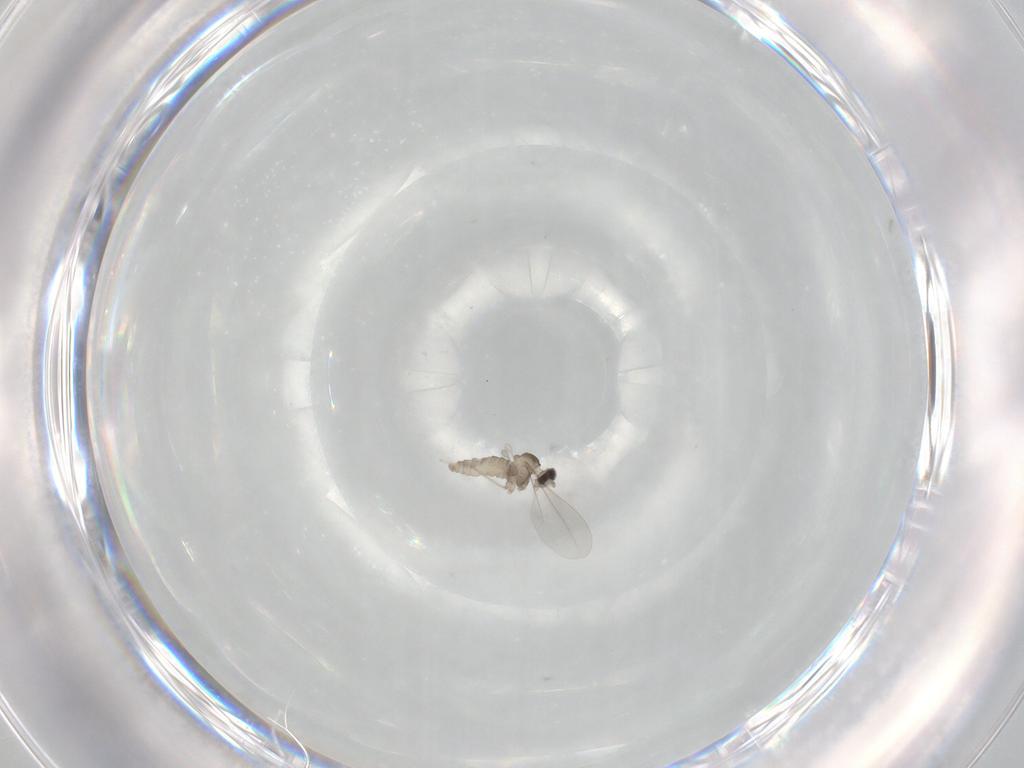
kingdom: Animalia
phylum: Arthropoda
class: Insecta
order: Diptera
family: Cecidomyiidae
